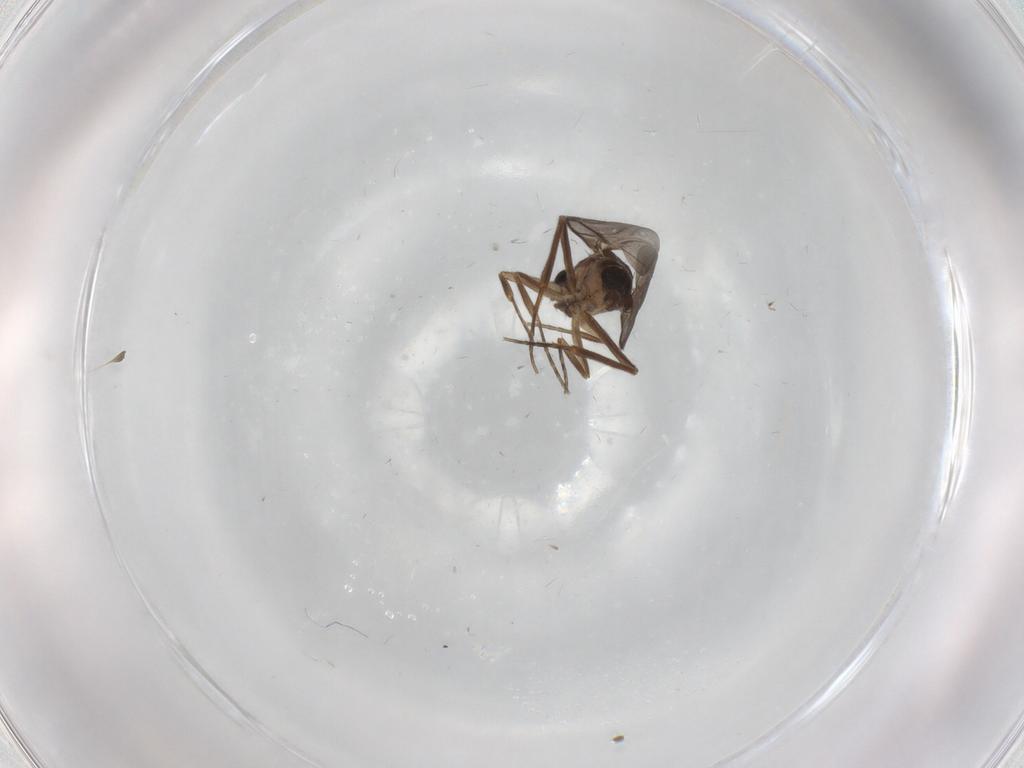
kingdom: Animalia
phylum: Arthropoda
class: Insecta
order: Diptera
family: Phoridae
